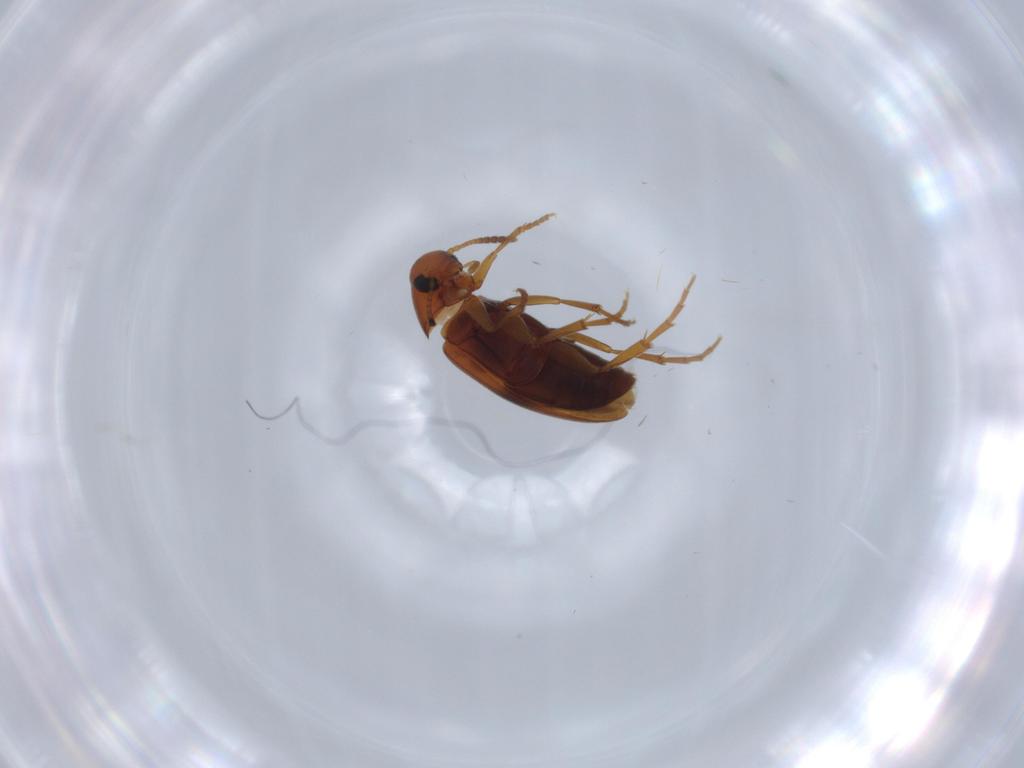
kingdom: Animalia
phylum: Arthropoda
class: Insecta
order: Coleoptera
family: Scraptiidae
